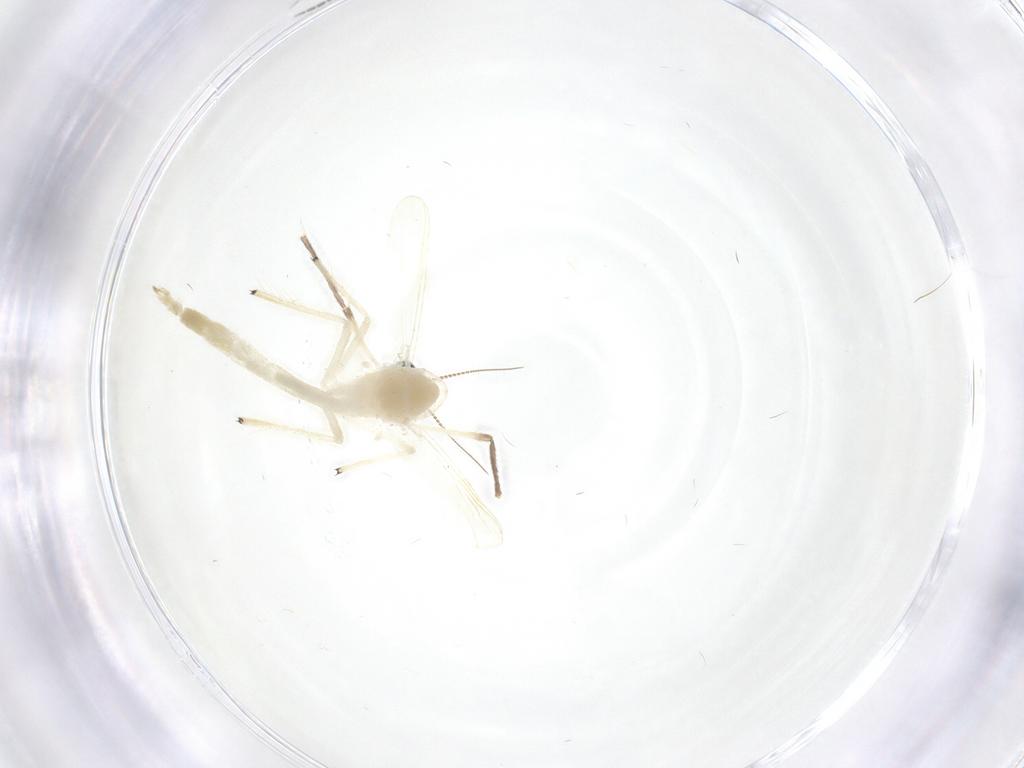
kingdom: Animalia
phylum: Arthropoda
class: Insecta
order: Diptera
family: Chironomidae
